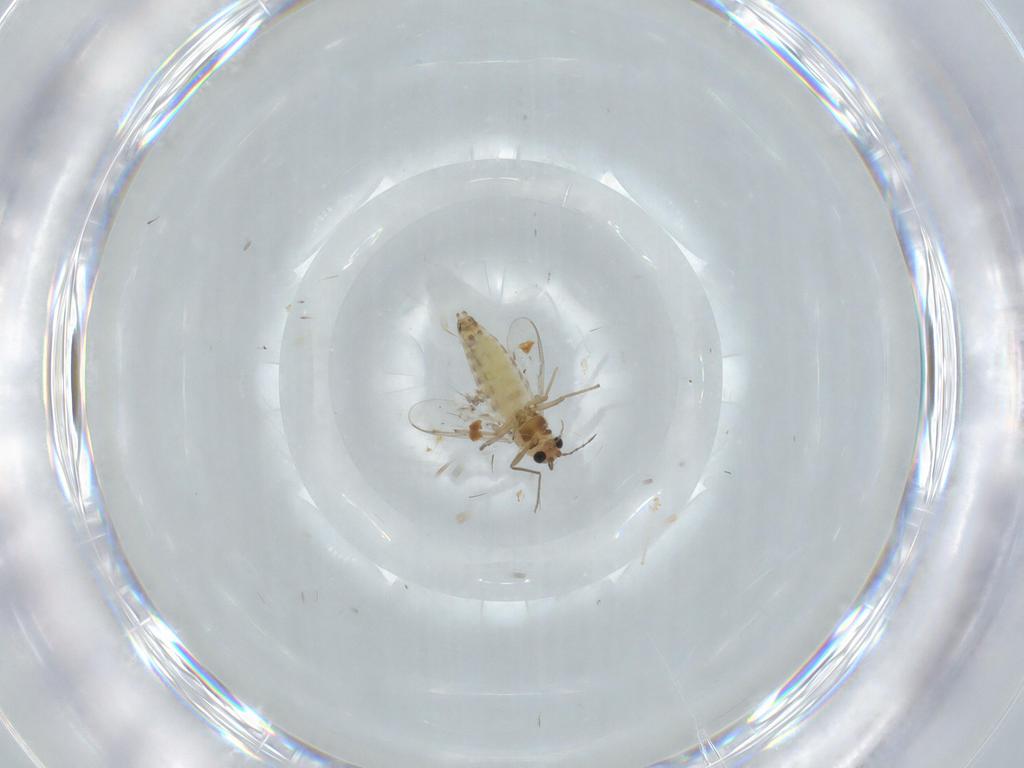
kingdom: Animalia
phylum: Arthropoda
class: Insecta
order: Diptera
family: Chironomidae
